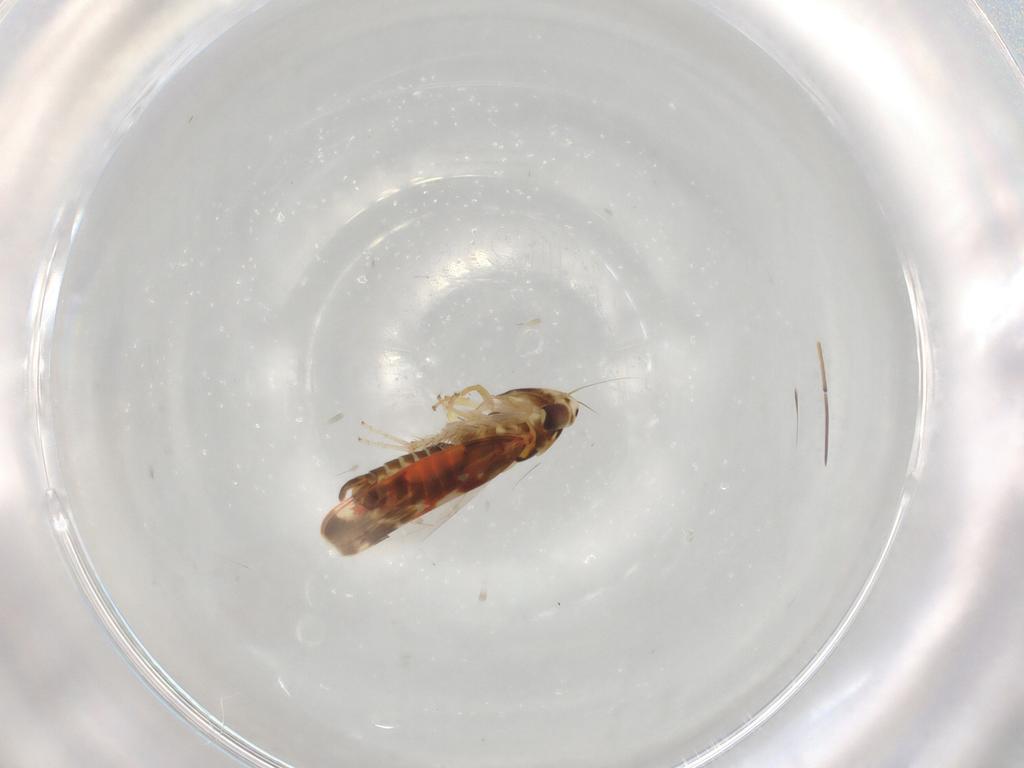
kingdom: Animalia
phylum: Arthropoda
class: Insecta
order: Hemiptera
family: Cicadellidae
